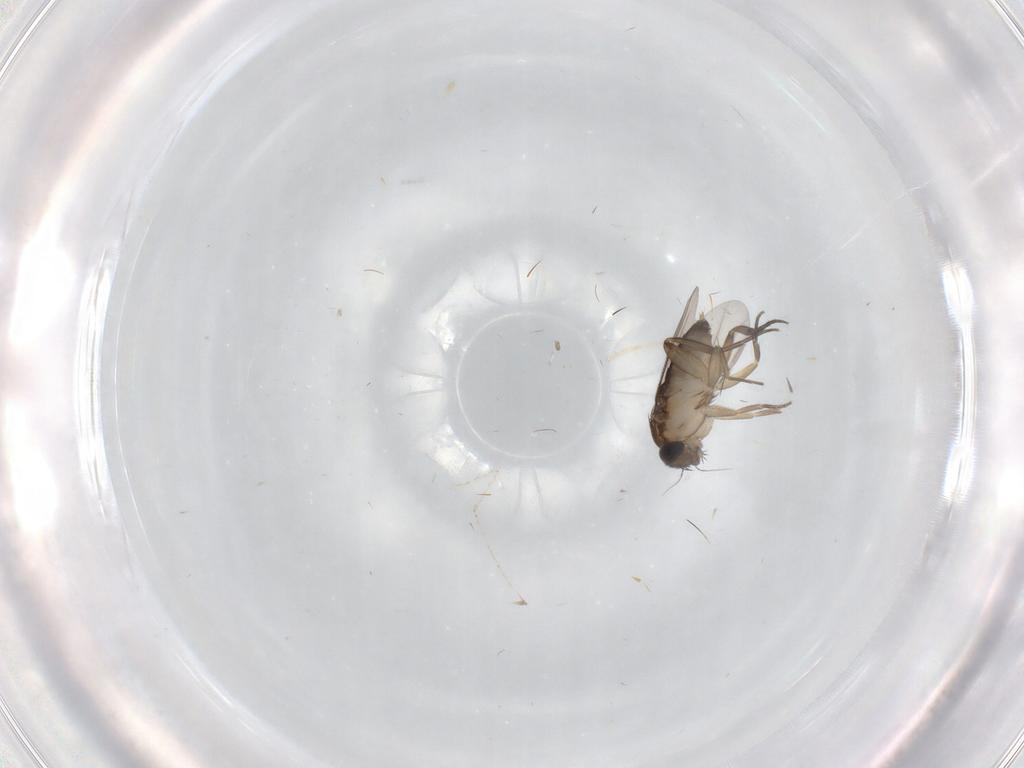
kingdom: Animalia
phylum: Arthropoda
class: Insecta
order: Diptera
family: Phoridae
